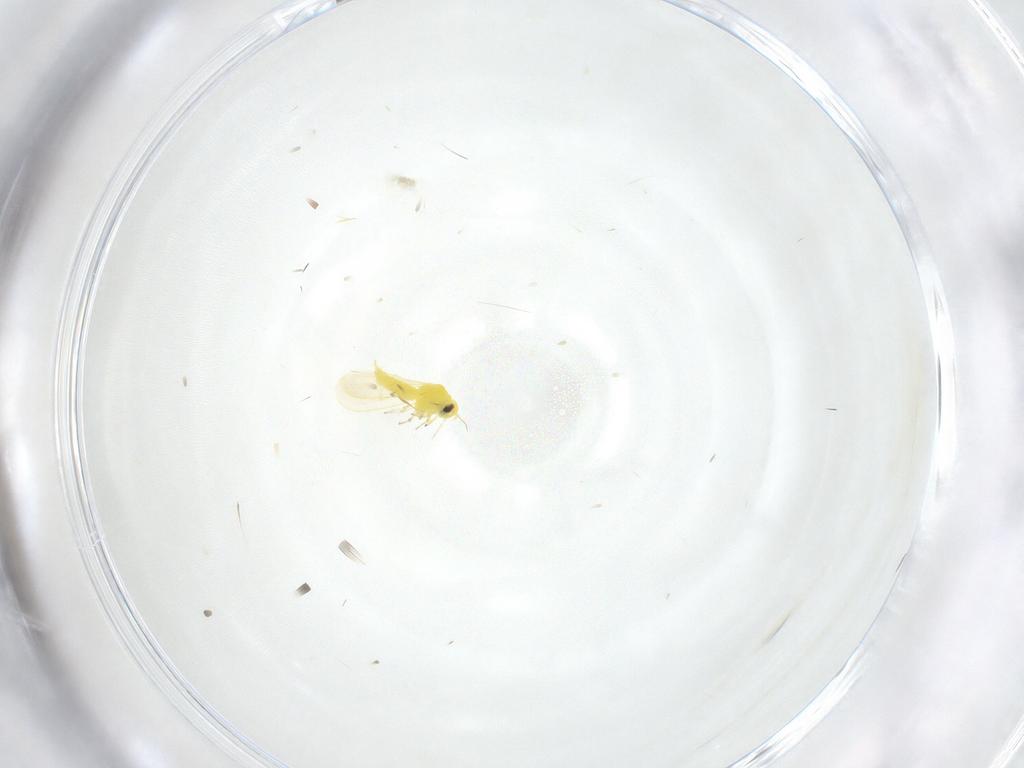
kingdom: Animalia
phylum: Arthropoda
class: Insecta
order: Hemiptera
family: Aleyrodidae
